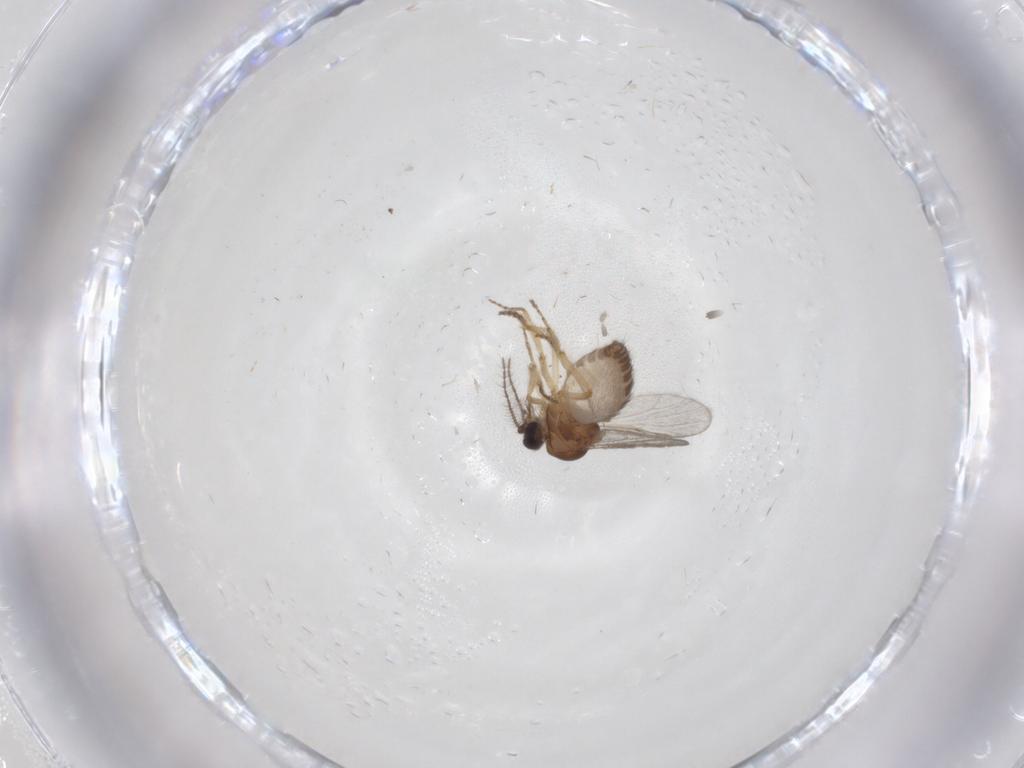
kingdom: Animalia
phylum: Arthropoda
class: Insecta
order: Diptera
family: Ceratopogonidae
